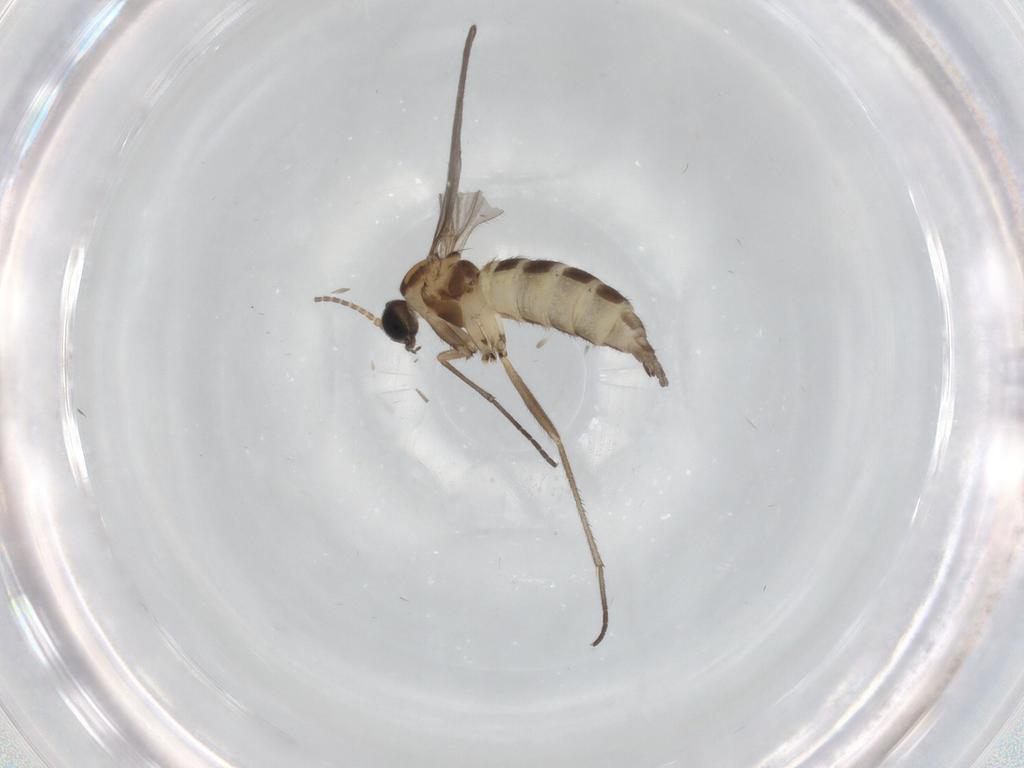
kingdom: Animalia
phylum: Arthropoda
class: Insecta
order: Diptera
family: Sciaridae
